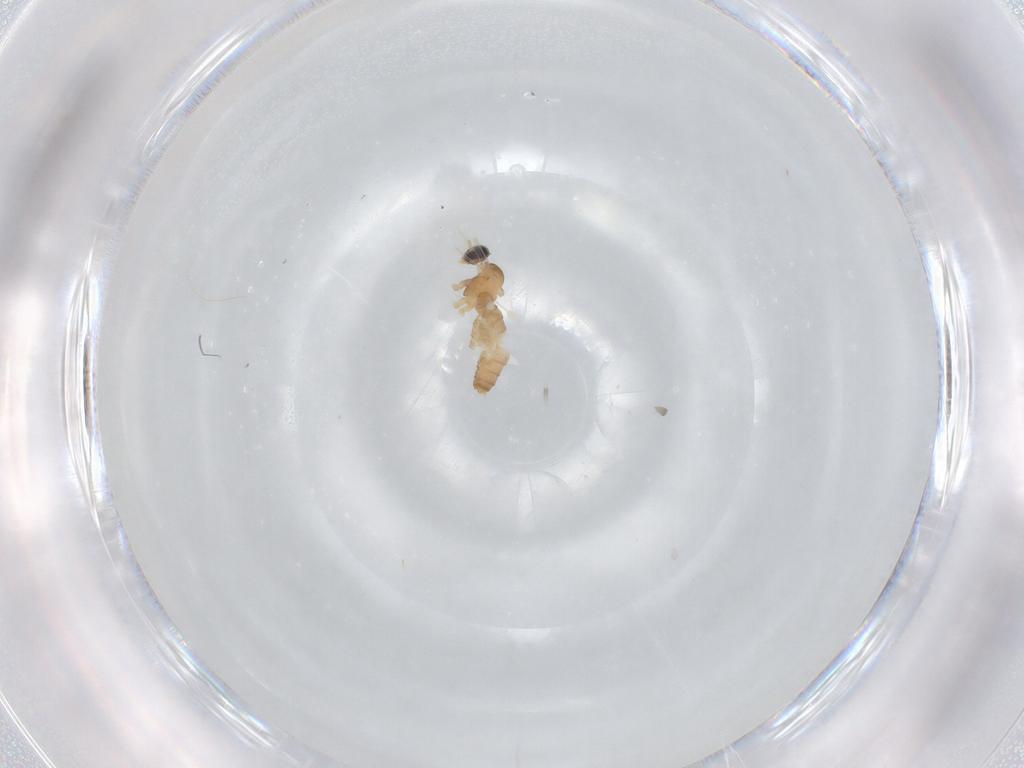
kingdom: Animalia
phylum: Arthropoda
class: Insecta
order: Diptera
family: Cecidomyiidae
